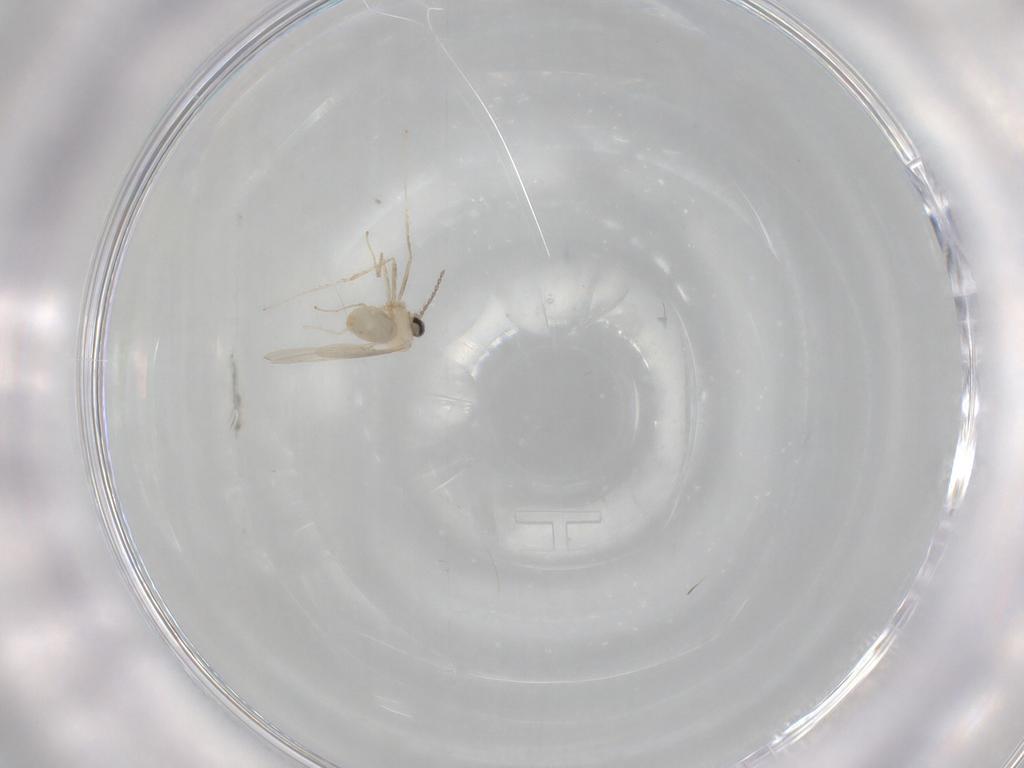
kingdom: Animalia
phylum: Arthropoda
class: Insecta
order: Diptera
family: Cecidomyiidae
